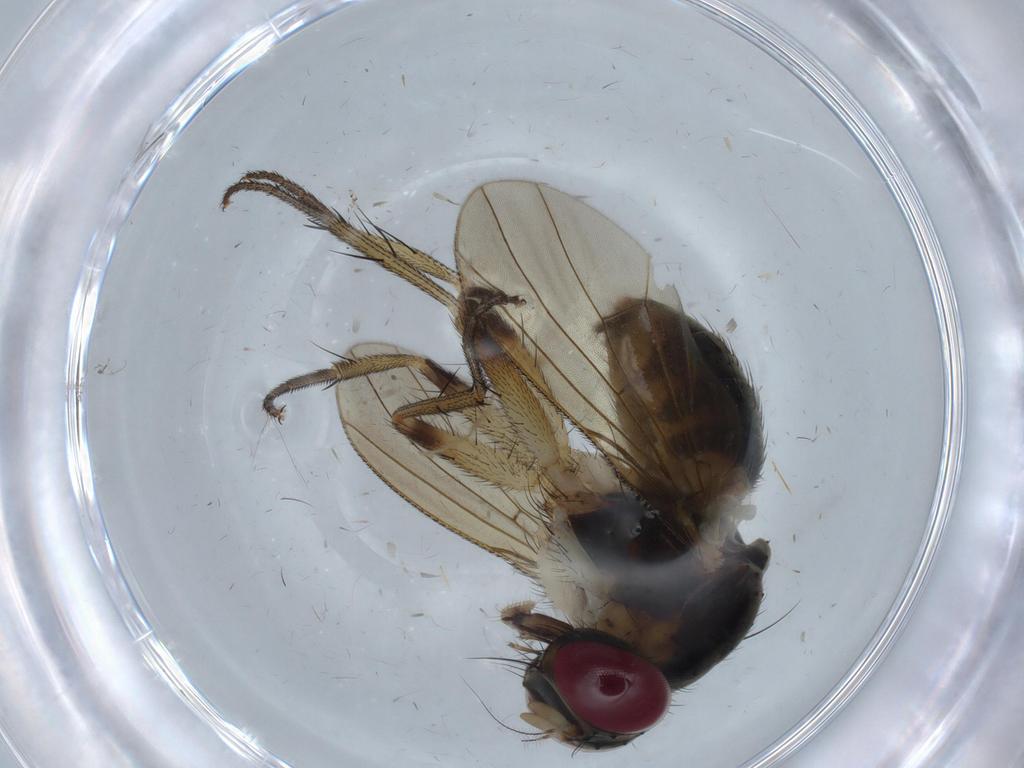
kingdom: Animalia
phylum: Arthropoda
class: Insecta
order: Diptera
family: Muscidae
